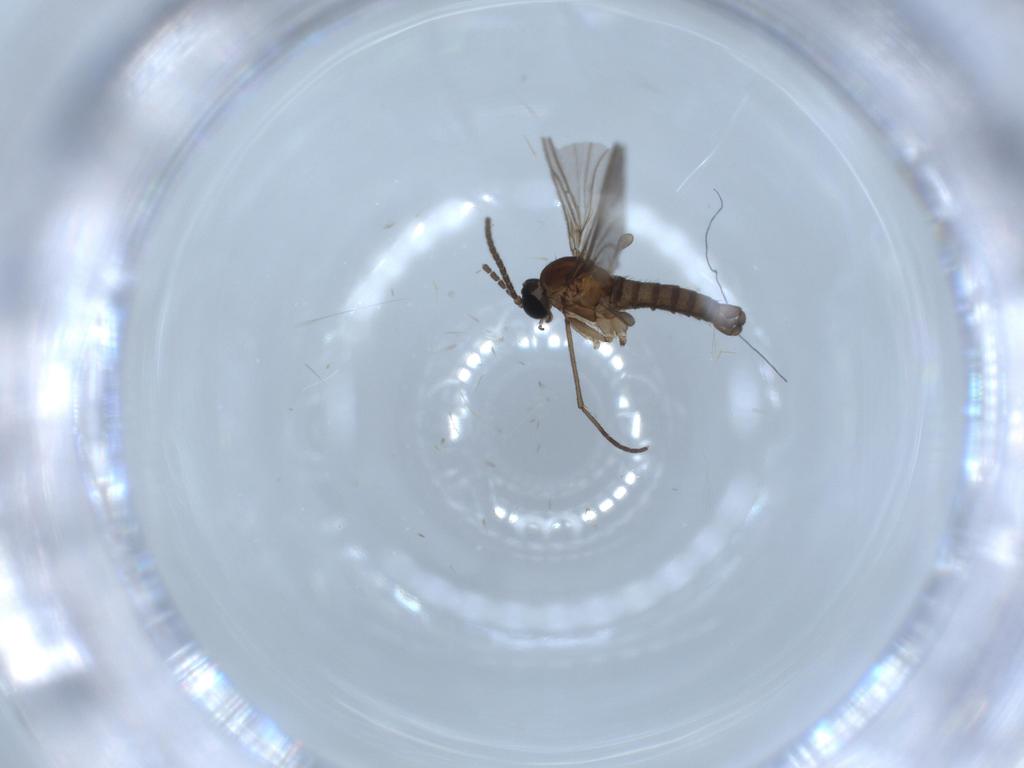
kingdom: Animalia
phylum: Arthropoda
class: Insecta
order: Diptera
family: Sciaridae
